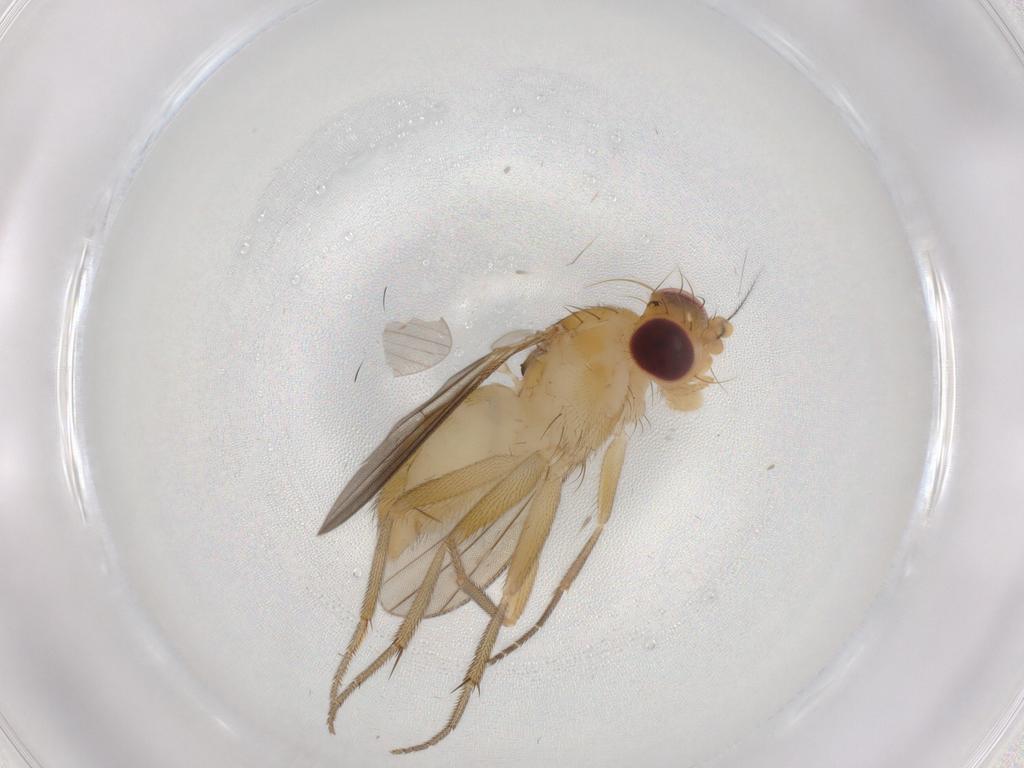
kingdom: Animalia
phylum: Arthropoda
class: Insecta
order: Diptera
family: Clusiidae
